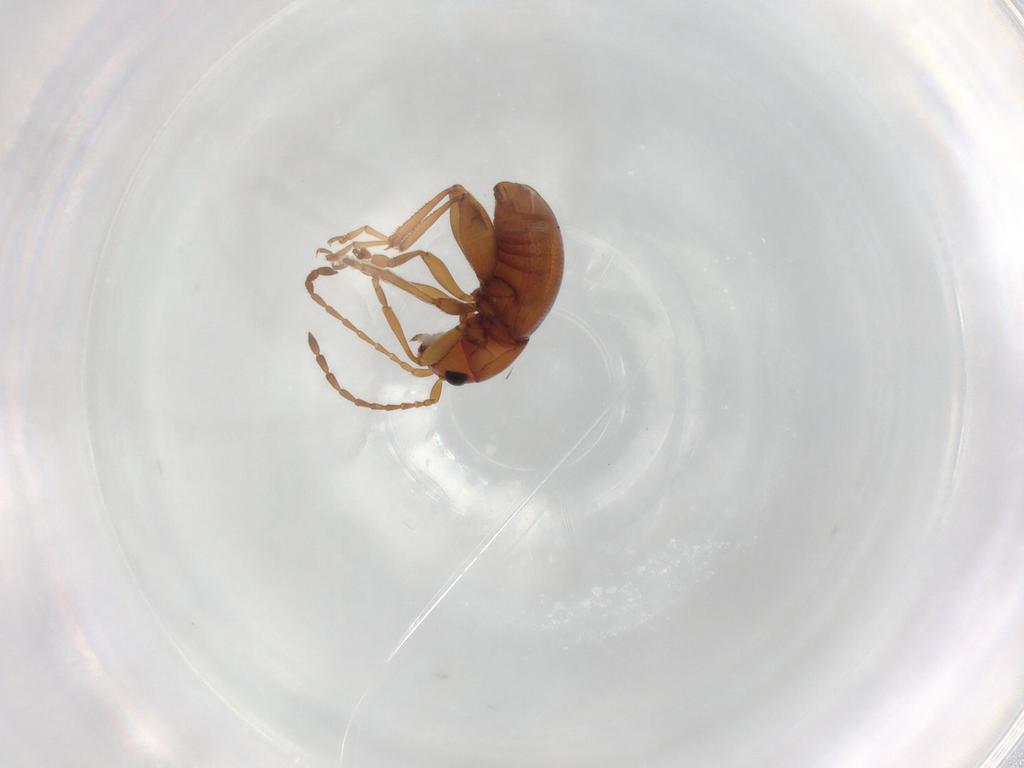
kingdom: Animalia
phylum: Arthropoda
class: Insecta
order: Coleoptera
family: Chrysomelidae
